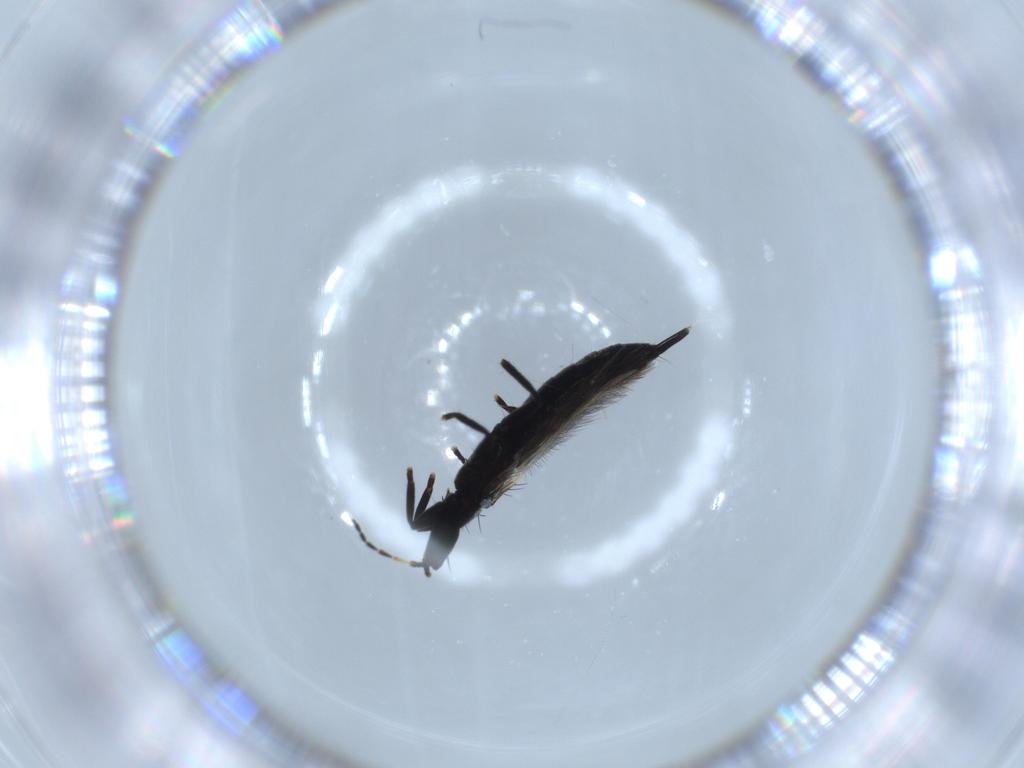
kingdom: Animalia
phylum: Arthropoda
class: Insecta
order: Thysanoptera
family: Phlaeothripidae
